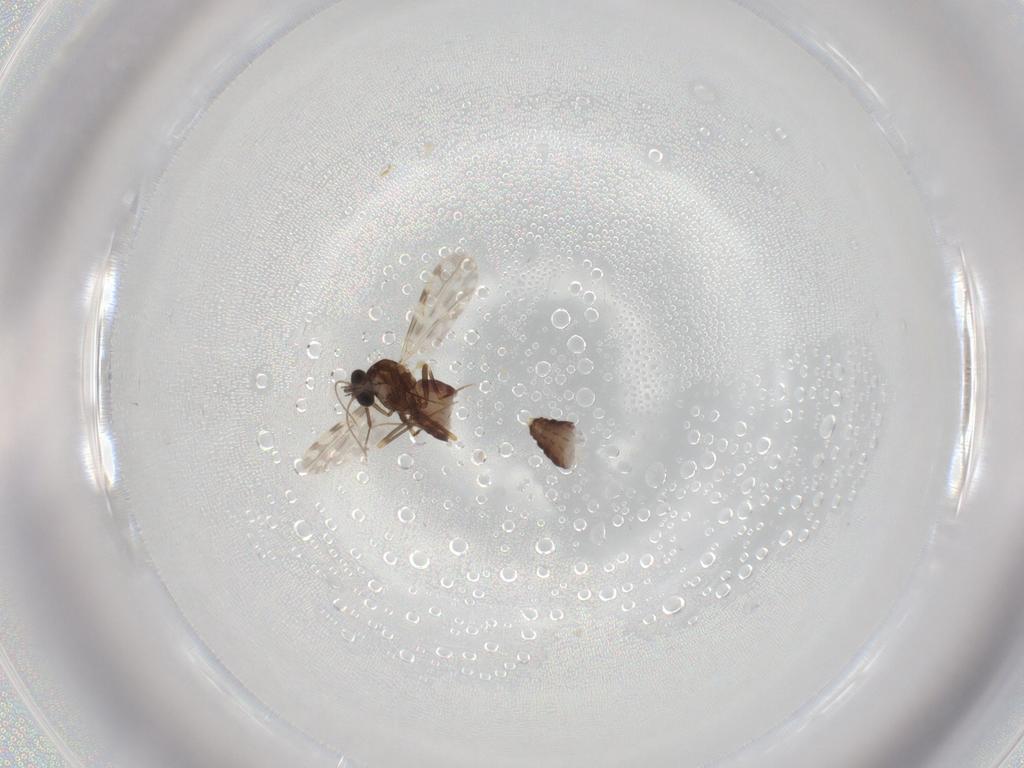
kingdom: Animalia
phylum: Arthropoda
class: Insecta
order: Diptera
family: Ceratopogonidae
